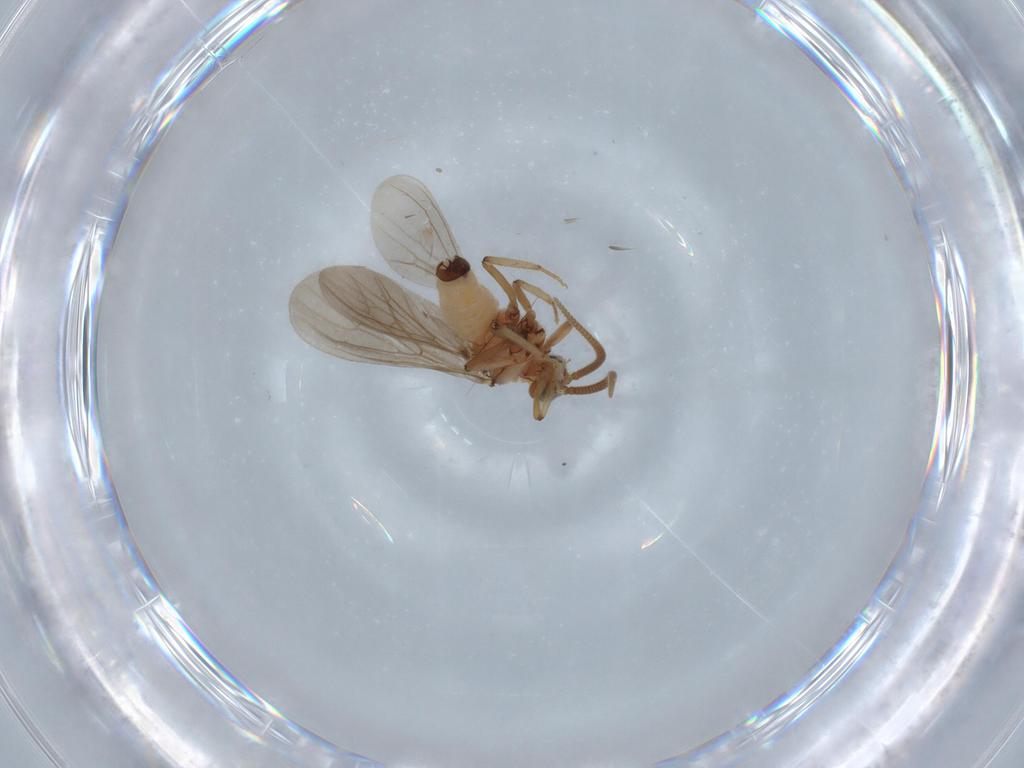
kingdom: Animalia
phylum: Arthropoda
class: Insecta
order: Neuroptera
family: Coniopterygidae
